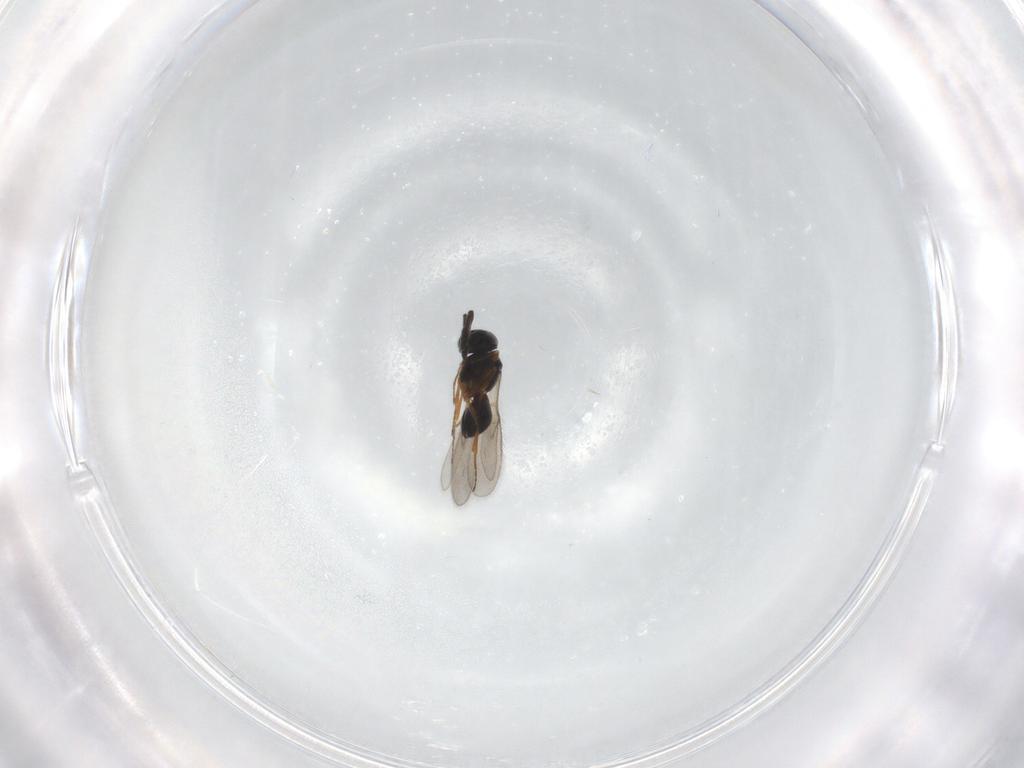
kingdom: Animalia
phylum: Arthropoda
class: Insecta
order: Hymenoptera
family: Scelionidae
